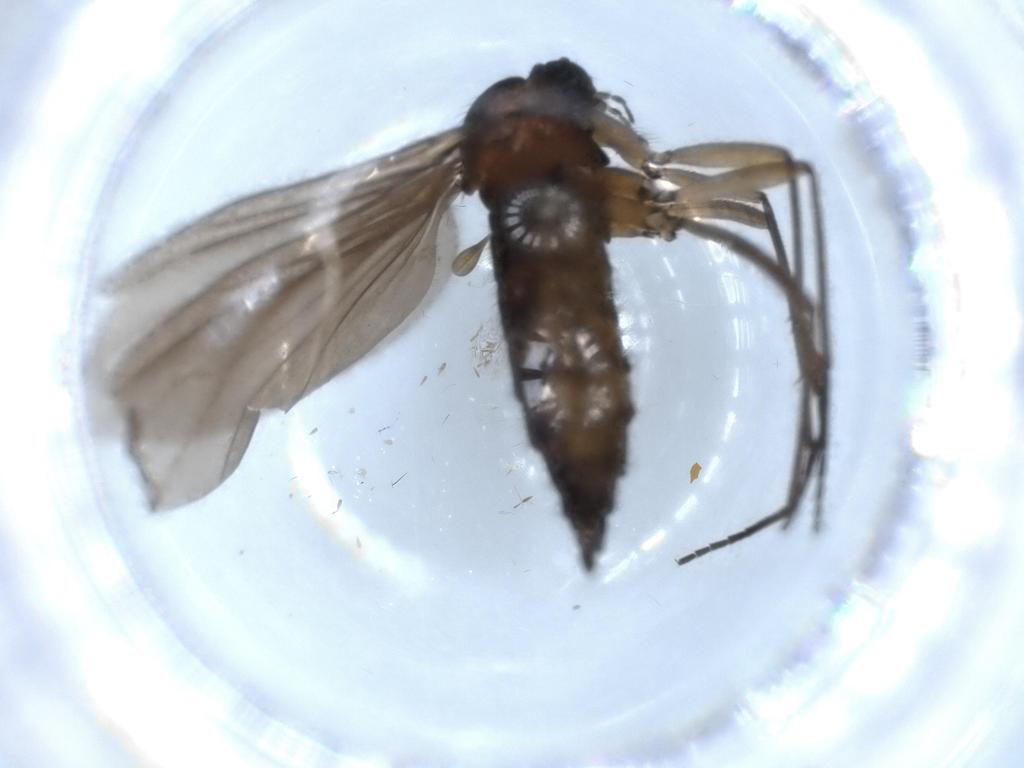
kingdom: Animalia
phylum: Arthropoda
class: Insecta
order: Diptera
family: Sciaridae
